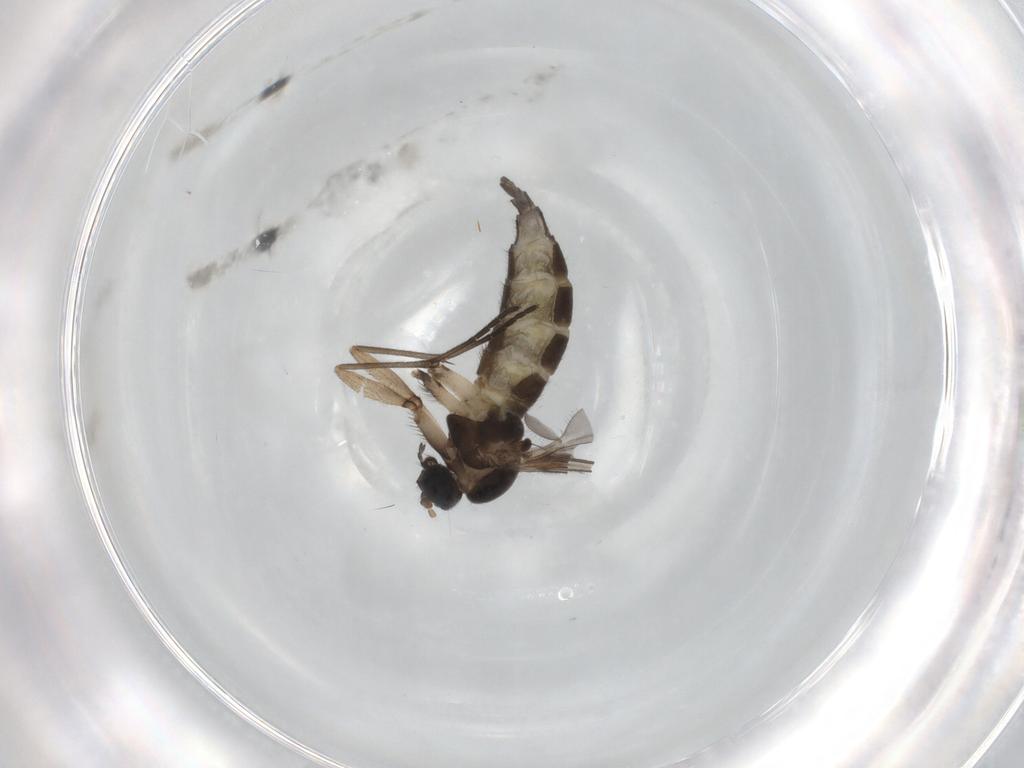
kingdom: Animalia
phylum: Arthropoda
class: Insecta
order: Diptera
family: Sciaridae
